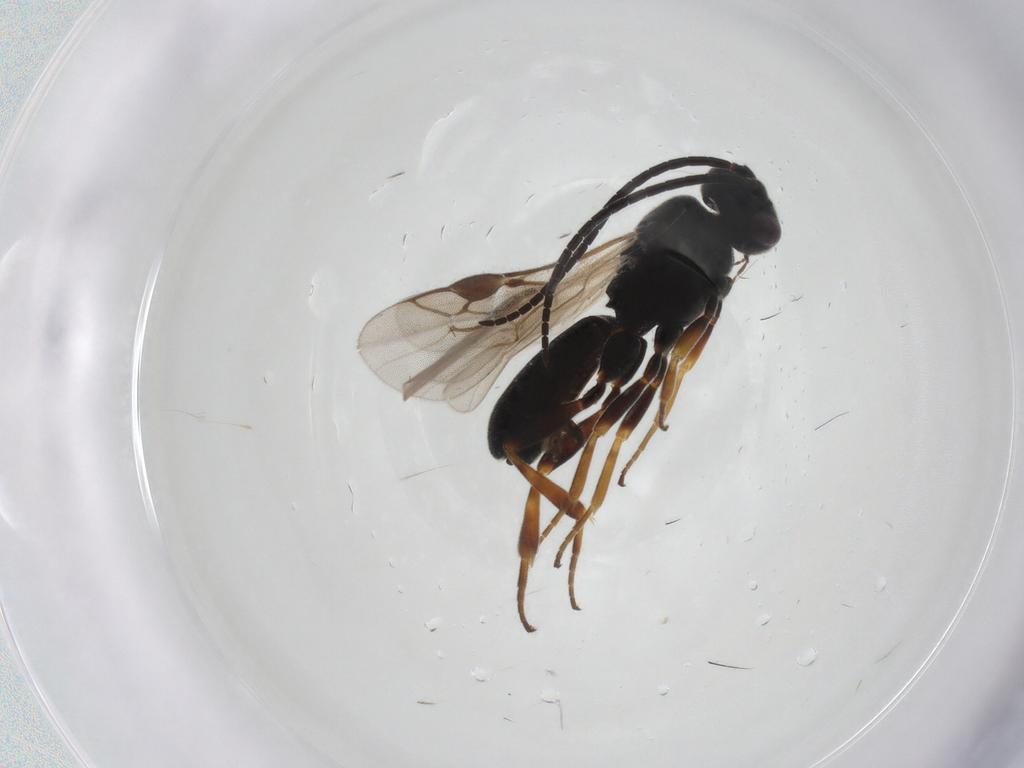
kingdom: Animalia
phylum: Arthropoda
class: Insecta
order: Hymenoptera
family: Braconidae
